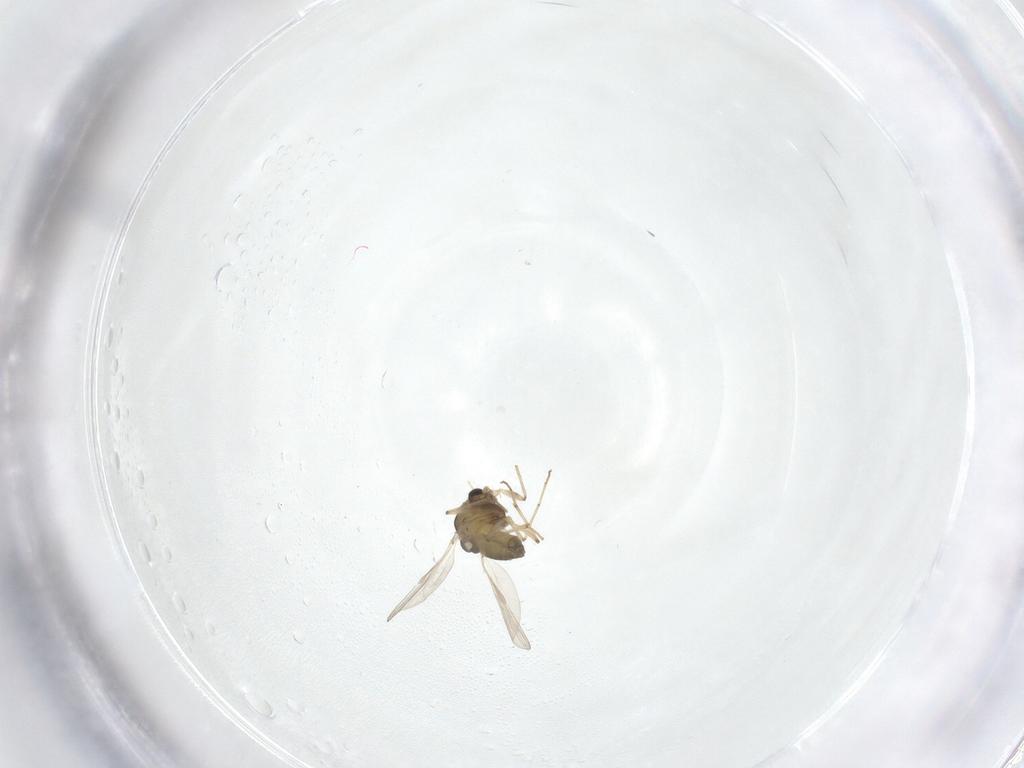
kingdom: Animalia
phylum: Arthropoda
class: Insecta
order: Diptera
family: Chironomidae
